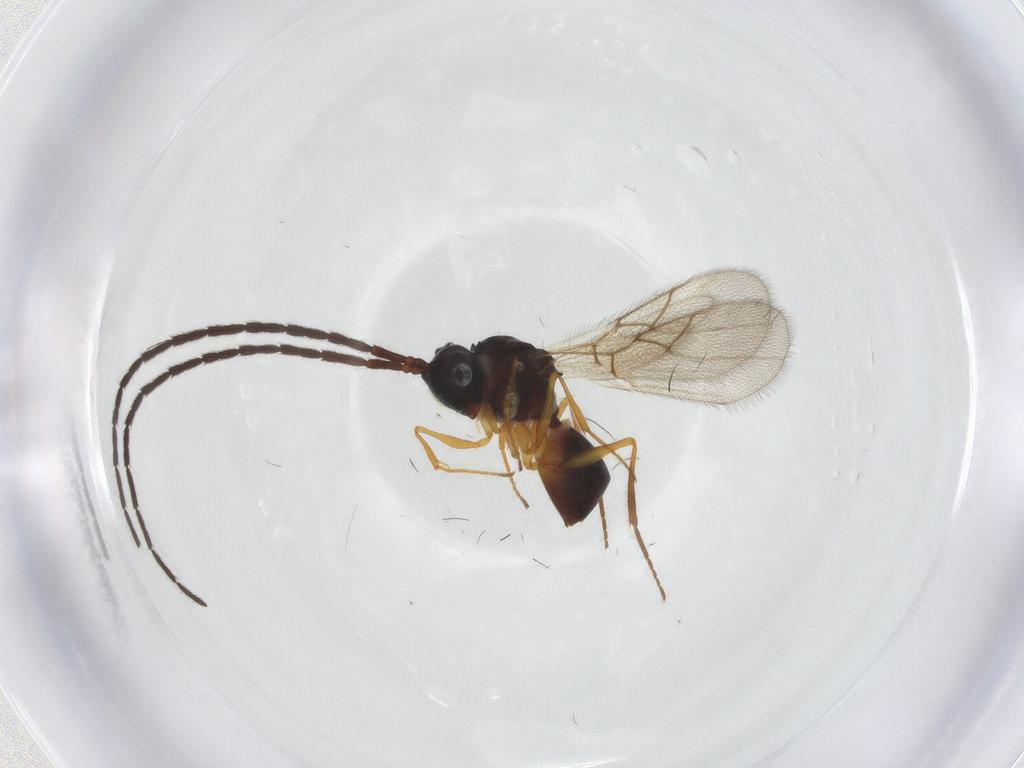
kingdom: Animalia
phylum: Arthropoda
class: Insecta
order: Hymenoptera
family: Figitidae
